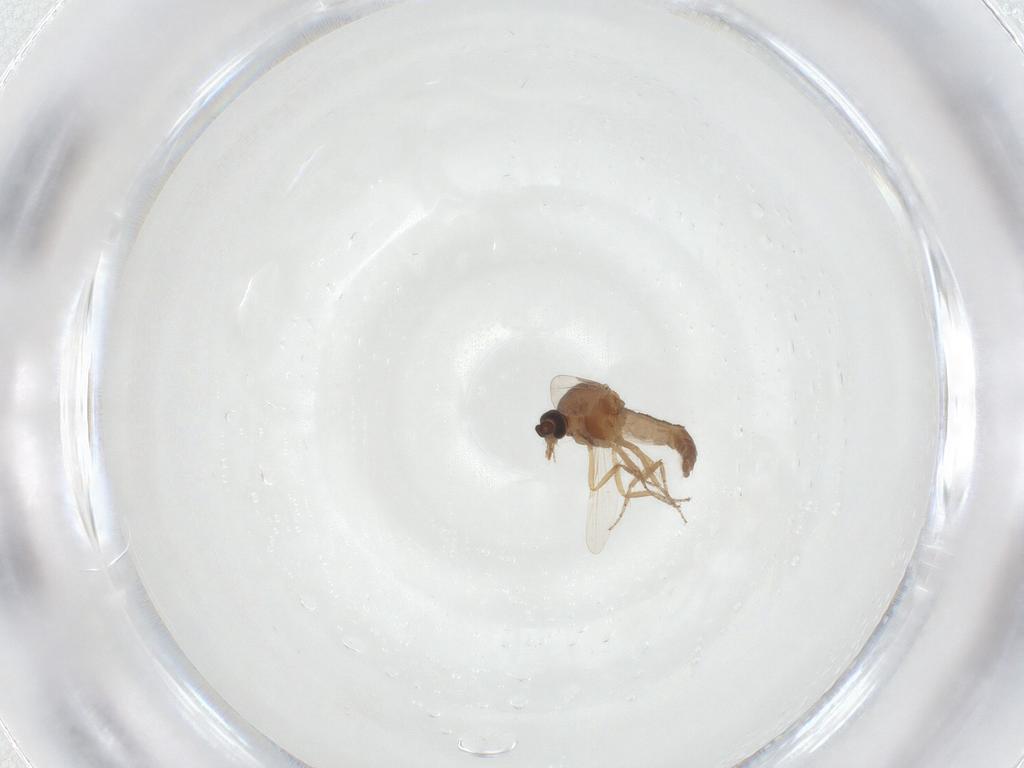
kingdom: Animalia
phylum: Arthropoda
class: Insecta
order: Diptera
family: Ceratopogonidae
